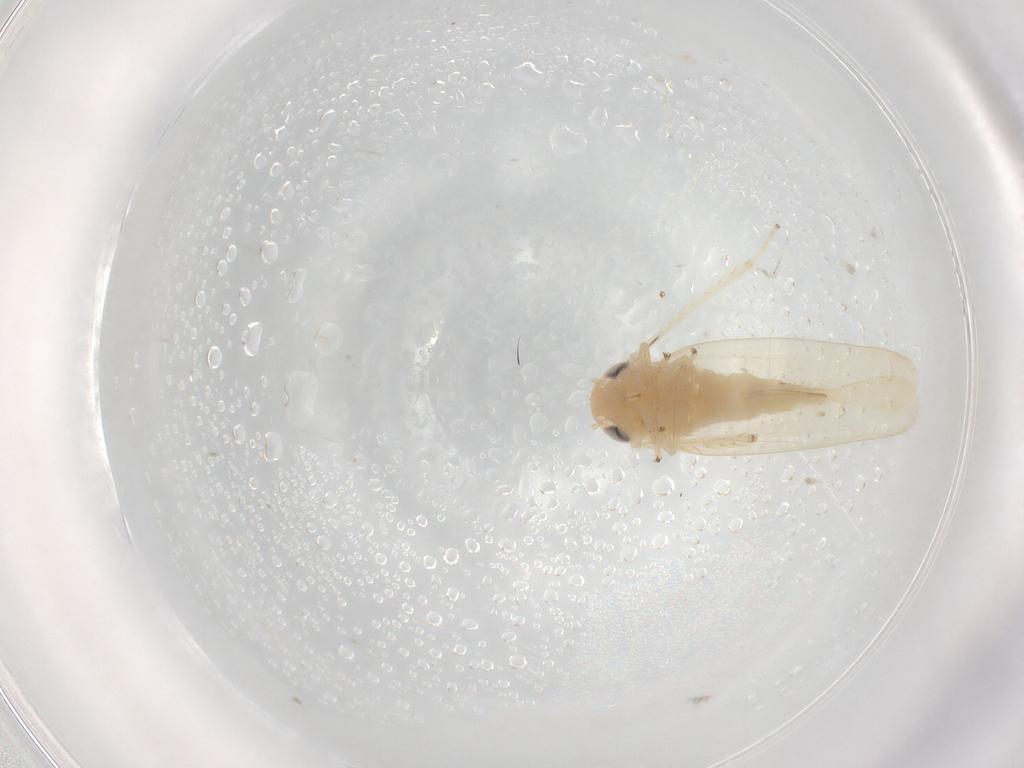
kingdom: Animalia
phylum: Arthropoda
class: Insecta
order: Hemiptera
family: Cicadellidae
